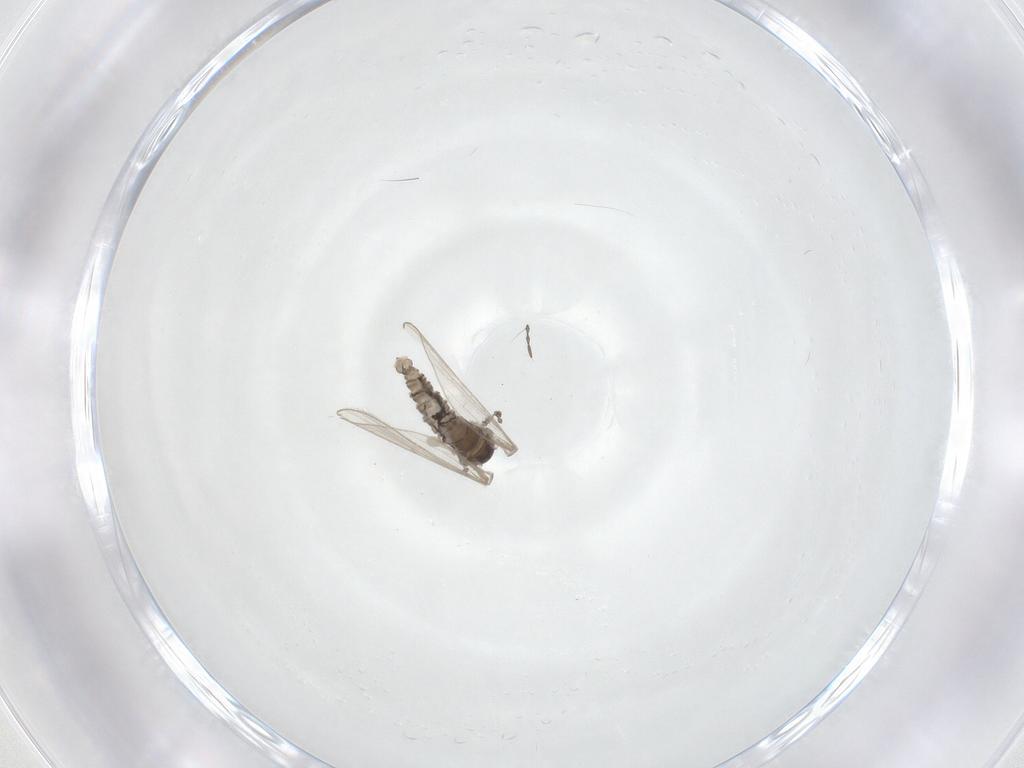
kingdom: Animalia
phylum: Arthropoda
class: Insecta
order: Diptera
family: Psychodidae
